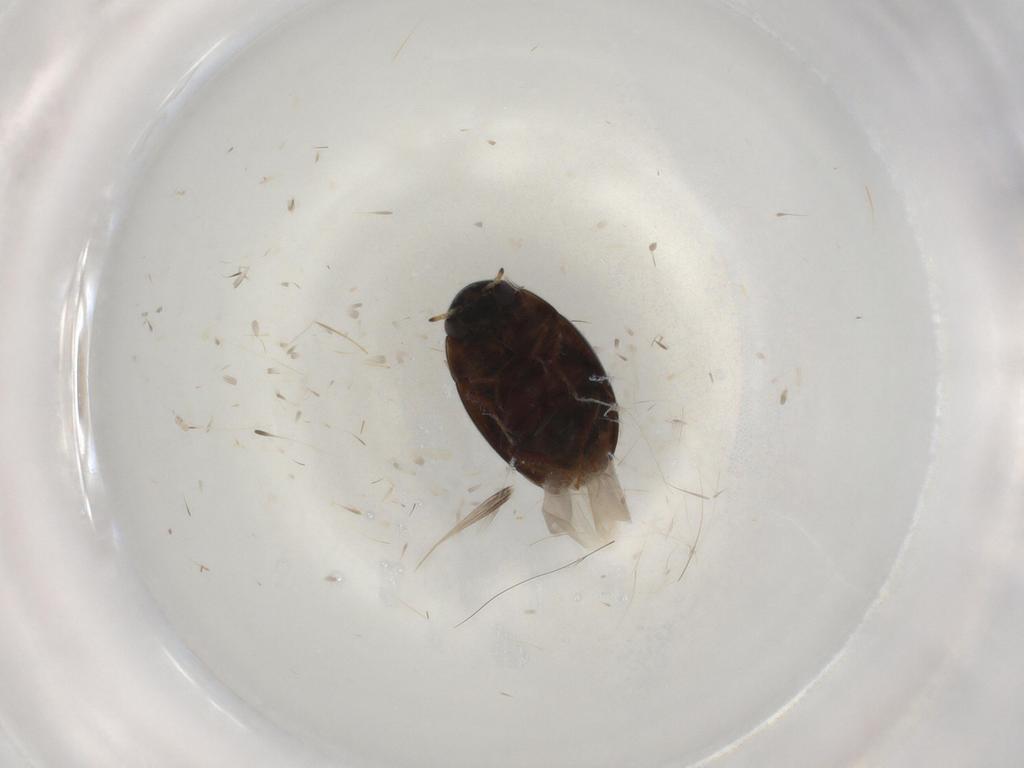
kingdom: Animalia
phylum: Arthropoda
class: Insecta
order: Coleoptera
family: Hydrophilidae
